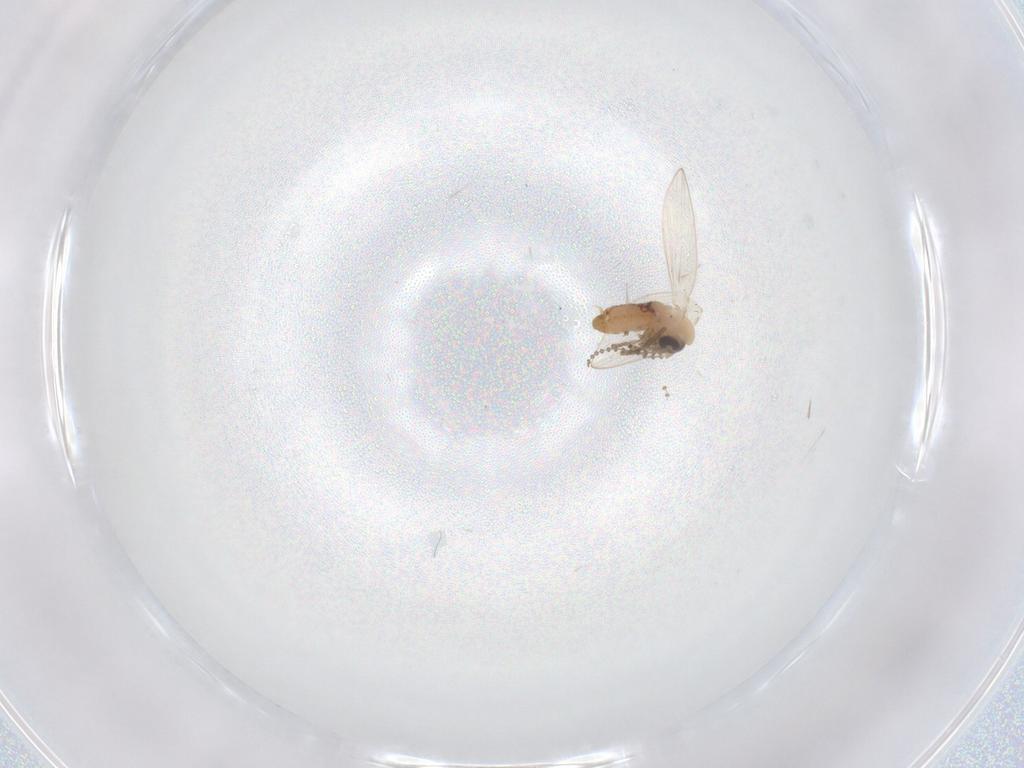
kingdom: Animalia
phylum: Arthropoda
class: Insecta
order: Diptera
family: Psychodidae
